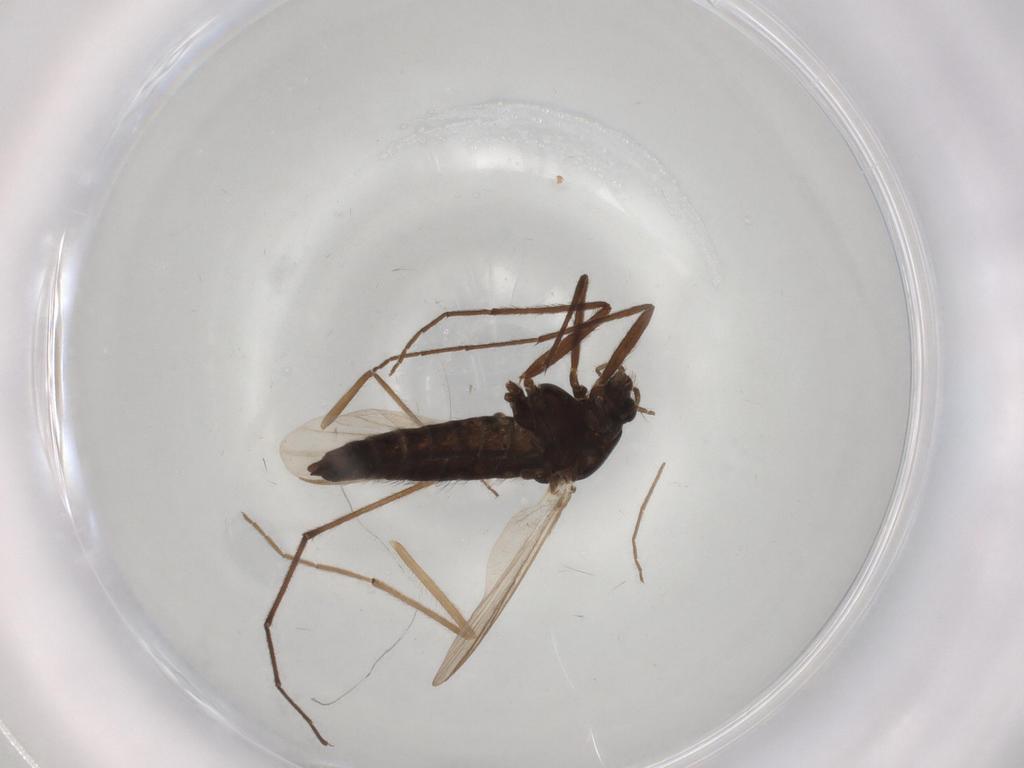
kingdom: Animalia
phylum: Arthropoda
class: Insecta
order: Diptera
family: Hybotidae
